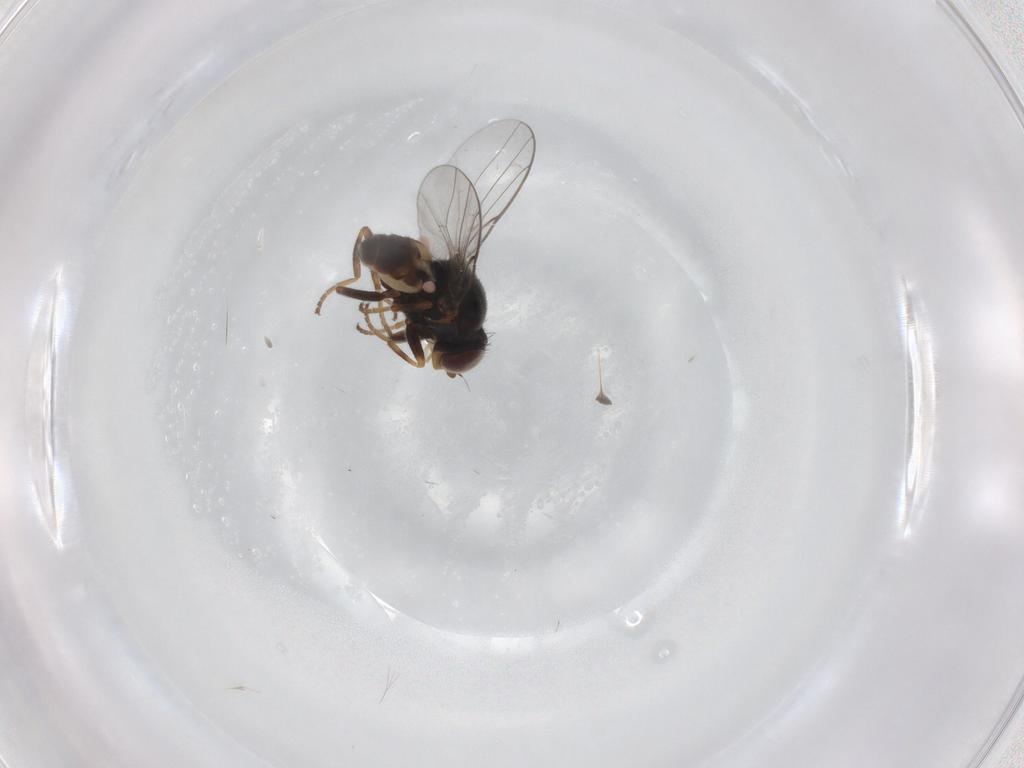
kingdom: Animalia
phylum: Arthropoda
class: Insecta
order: Diptera
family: Chloropidae
